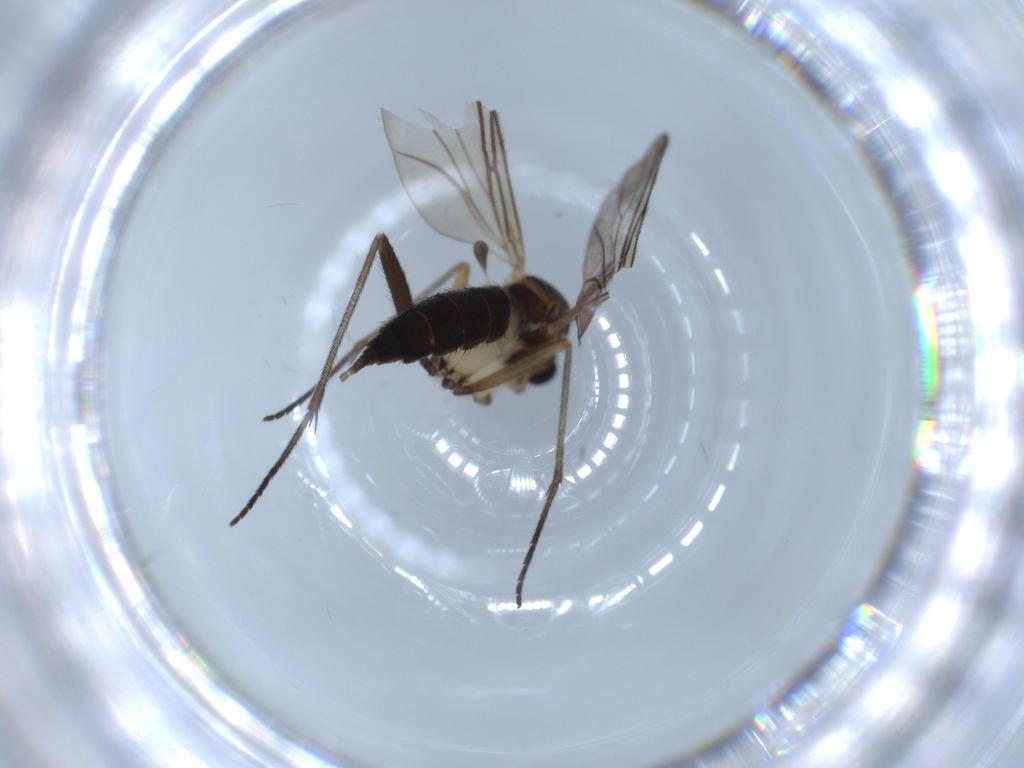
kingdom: Animalia
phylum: Arthropoda
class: Insecta
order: Diptera
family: Sciaridae
